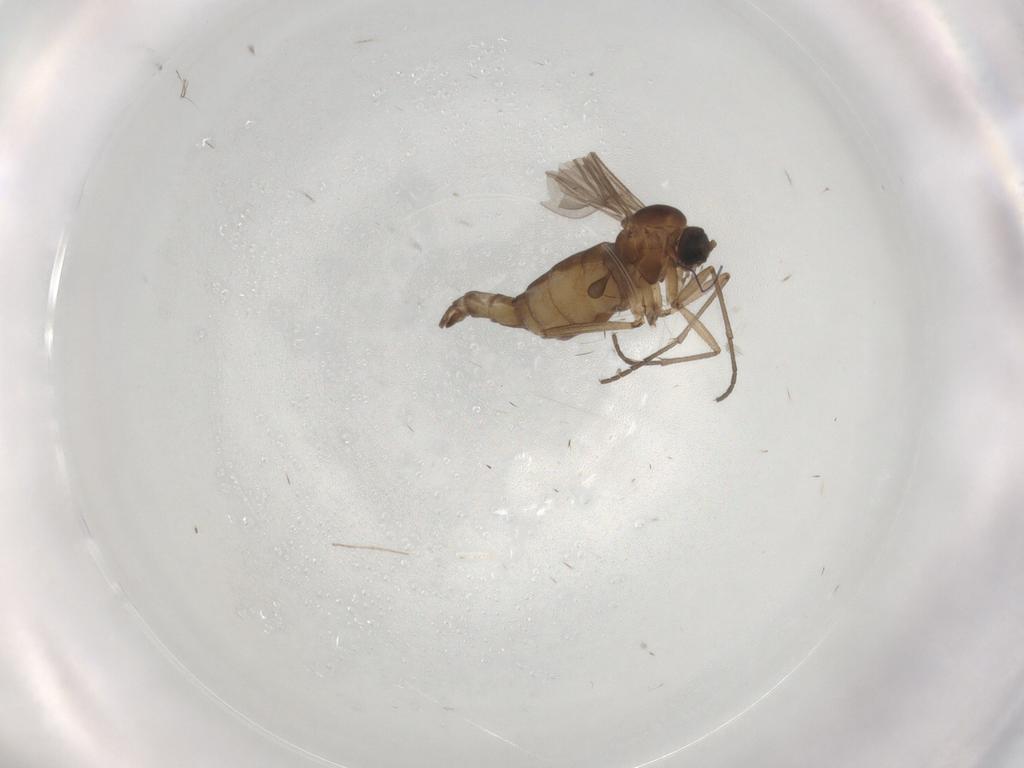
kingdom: Animalia
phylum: Arthropoda
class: Insecta
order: Diptera
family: Sciaridae
